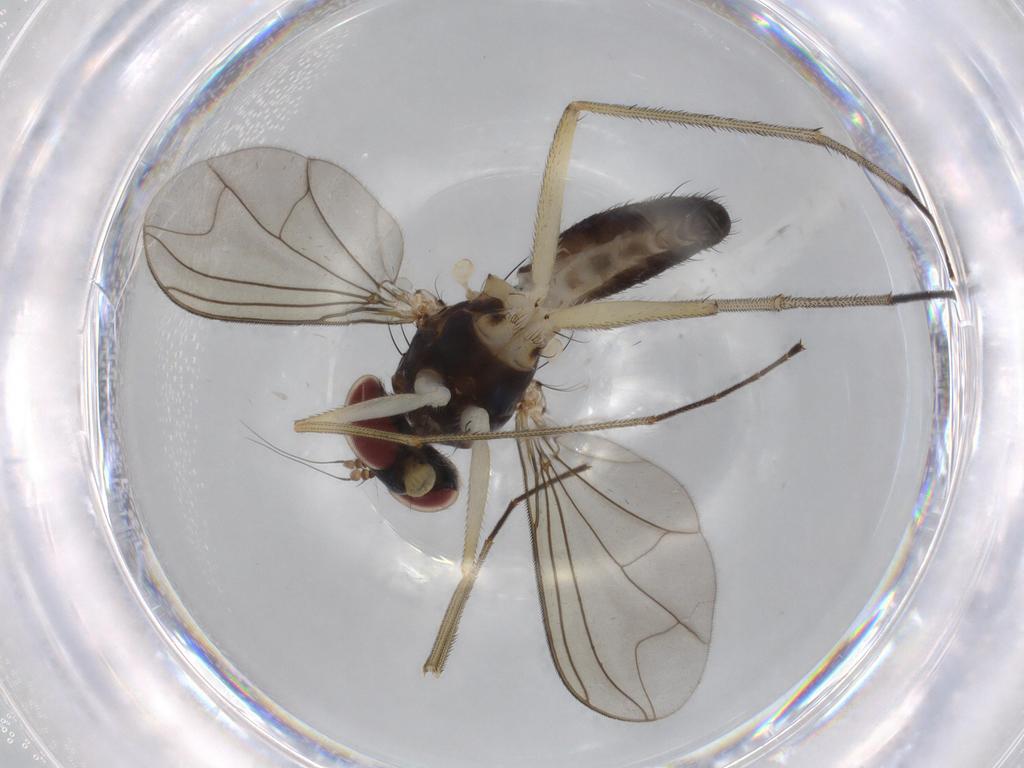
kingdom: Animalia
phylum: Arthropoda
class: Insecta
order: Diptera
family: Dolichopodidae
